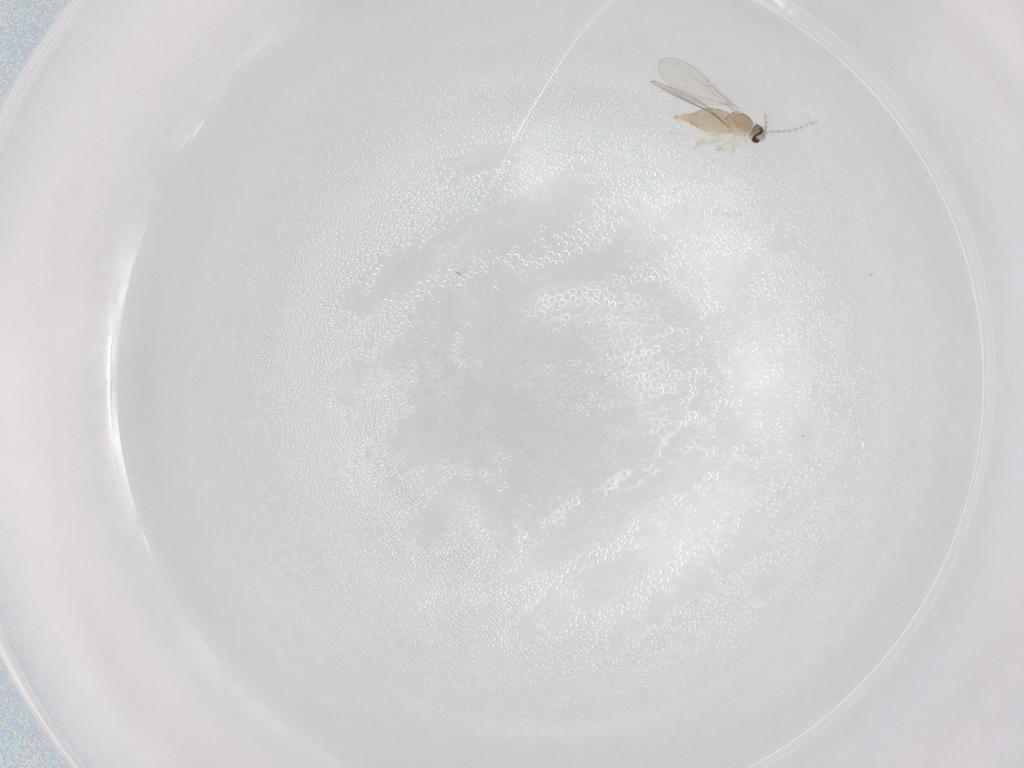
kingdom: Animalia
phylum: Arthropoda
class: Insecta
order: Diptera
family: Cecidomyiidae
